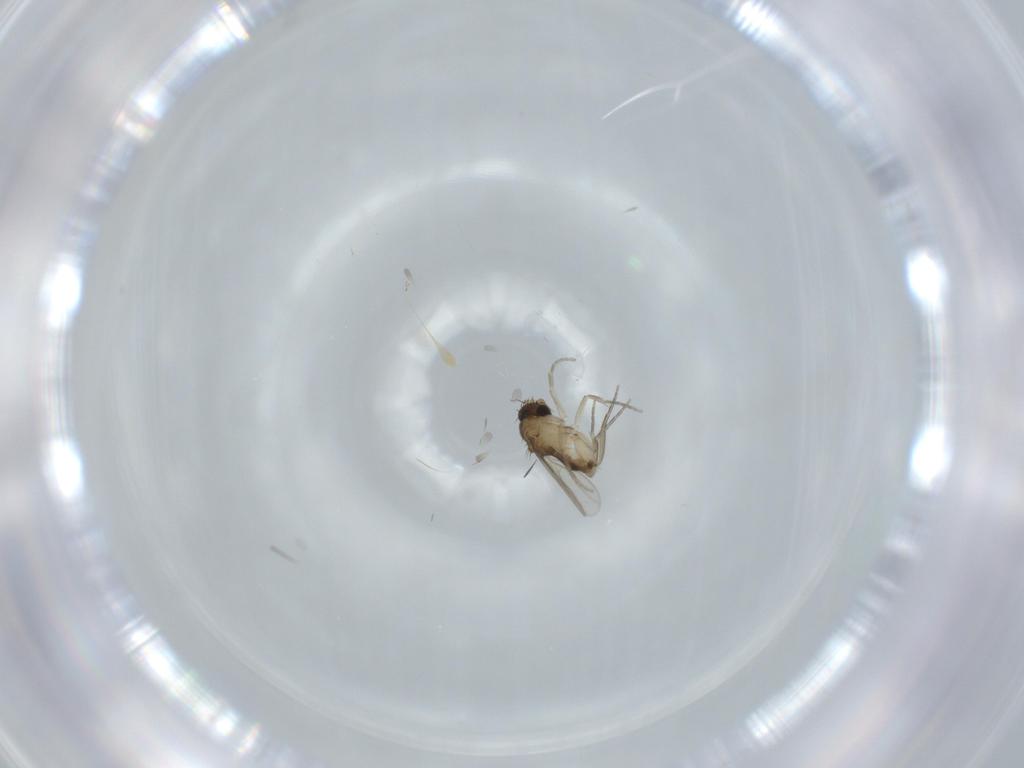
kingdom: Animalia
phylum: Arthropoda
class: Insecta
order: Diptera
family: Phoridae
